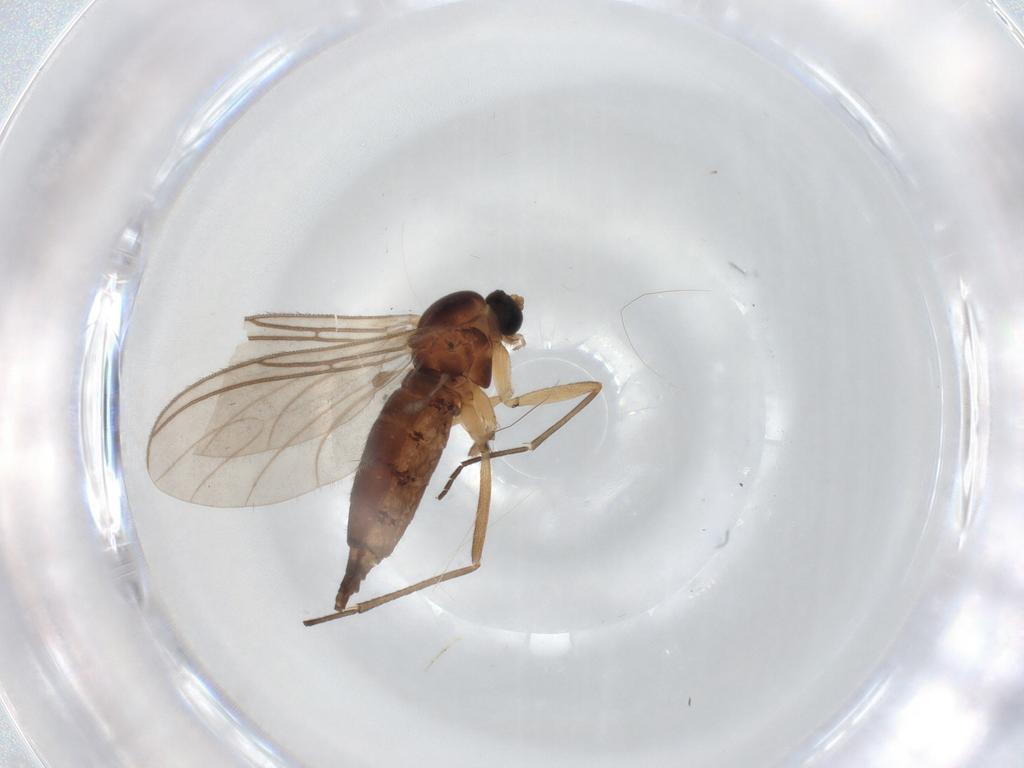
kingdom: Animalia
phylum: Arthropoda
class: Insecta
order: Diptera
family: Sciaridae
